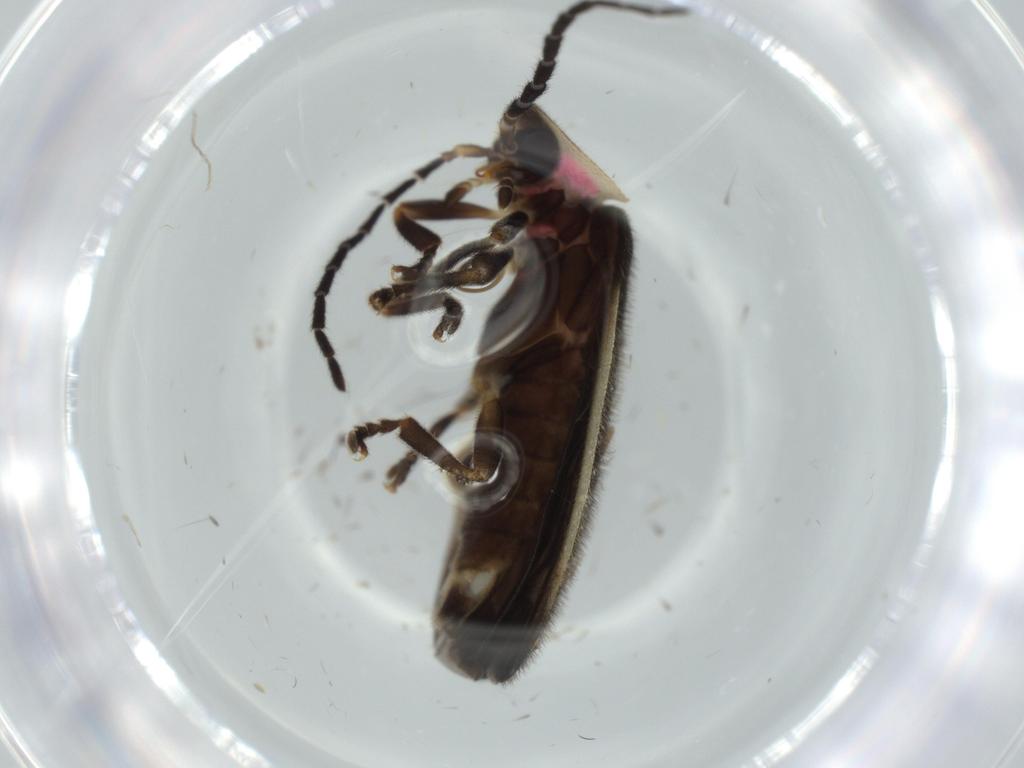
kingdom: Animalia
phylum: Arthropoda
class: Insecta
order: Coleoptera
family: Lampyridae
